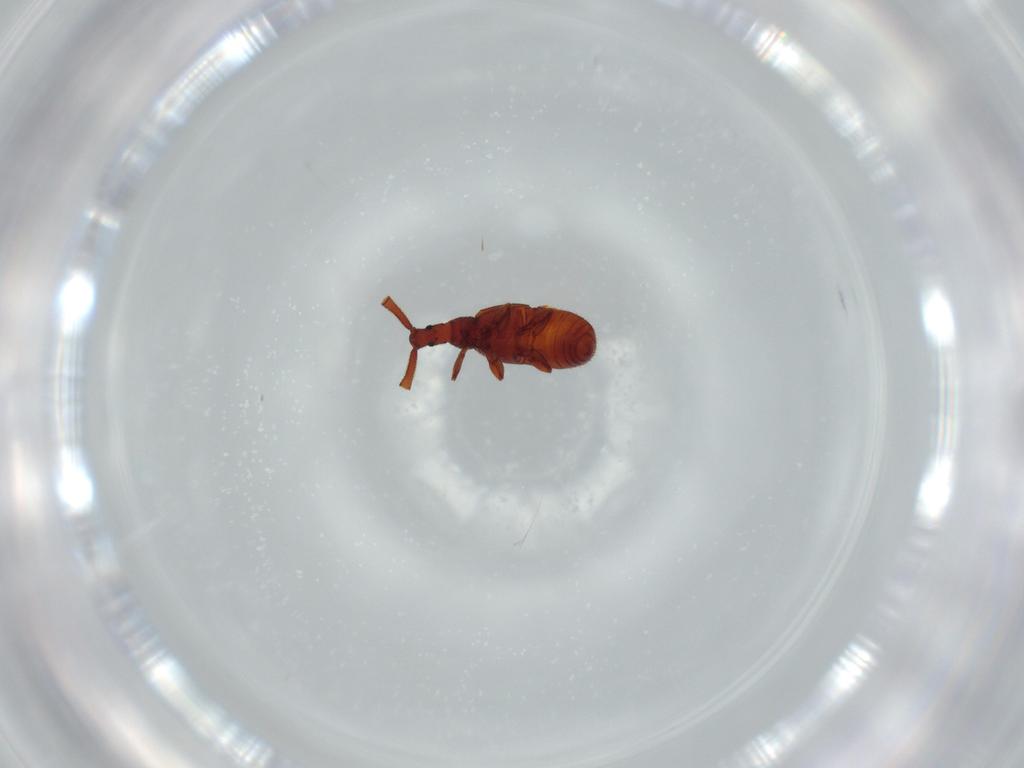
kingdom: Animalia
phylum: Arthropoda
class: Insecta
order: Coleoptera
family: Staphylinidae
